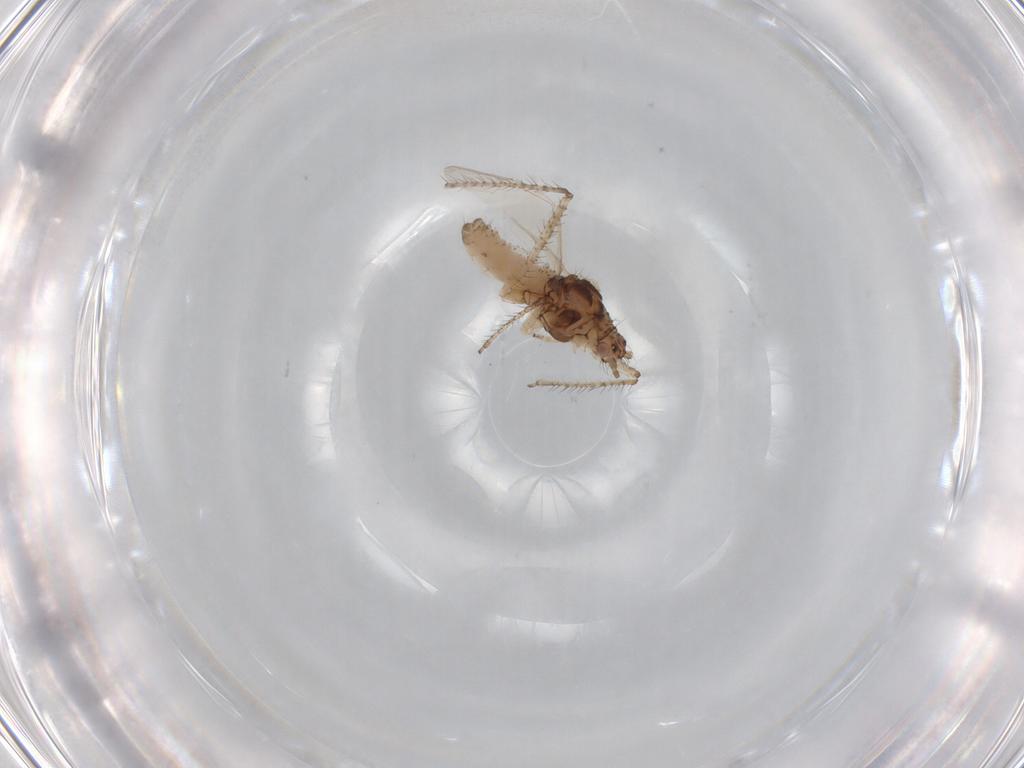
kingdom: Animalia
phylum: Arthropoda
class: Insecta
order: Hemiptera
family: Aphididae
